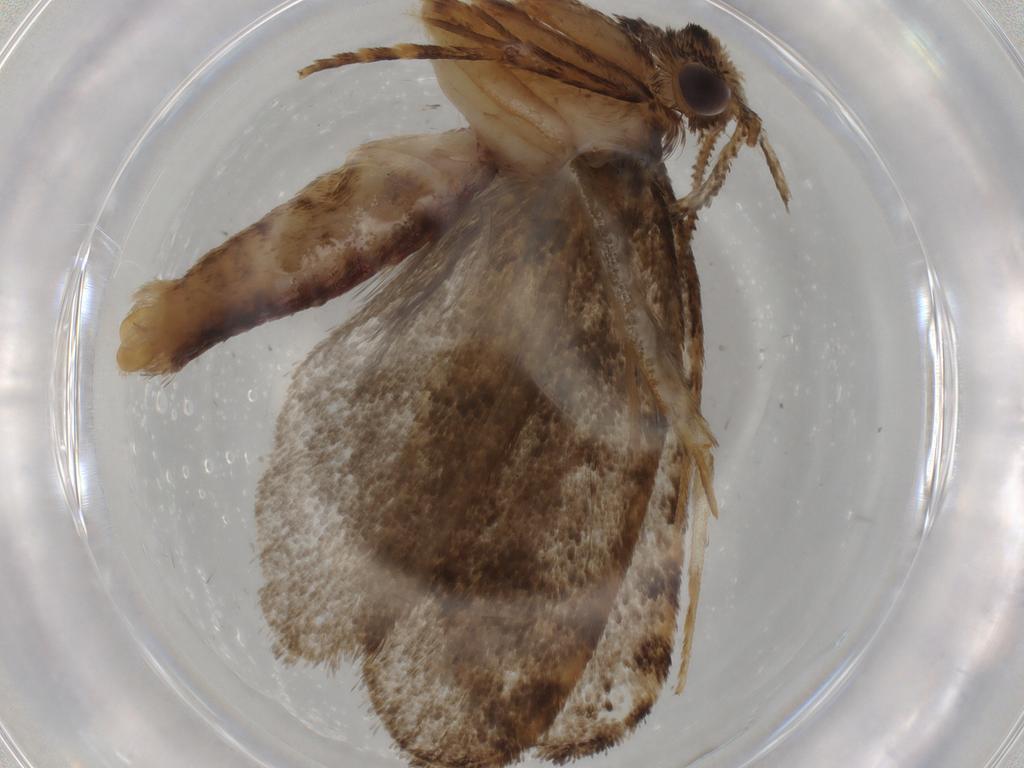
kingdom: Animalia
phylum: Arthropoda
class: Insecta
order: Lepidoptera
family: Tineidae
